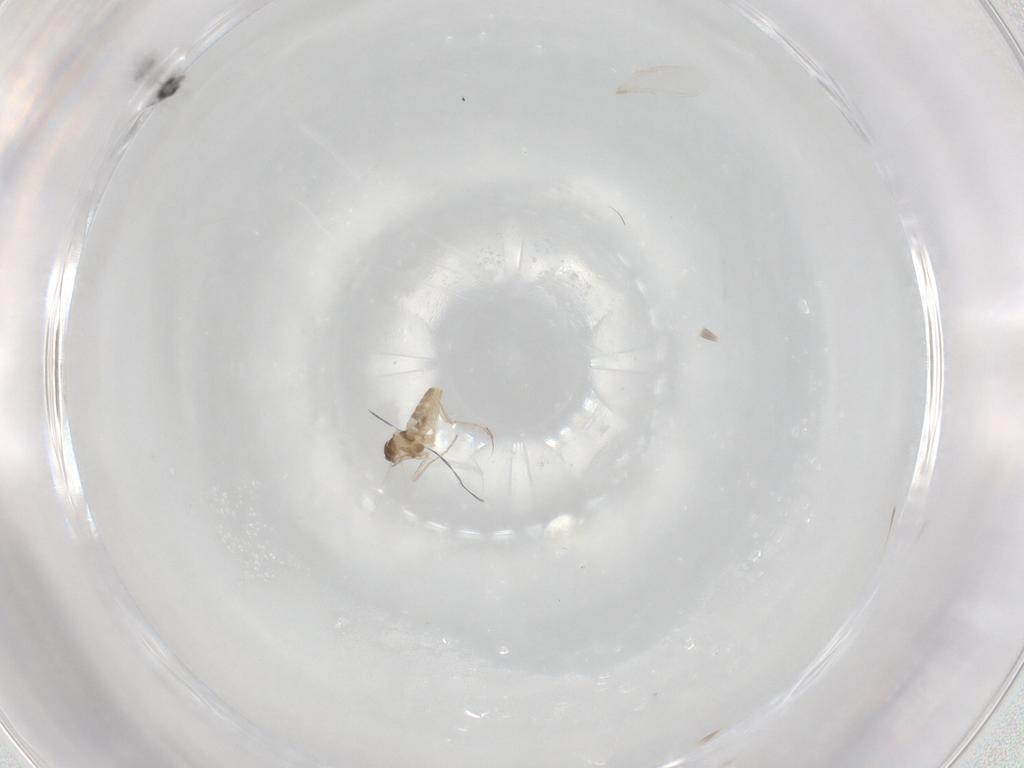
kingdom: Animalia
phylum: Arthropoda
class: Insecta
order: Diptera
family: Cecidomyiidae
